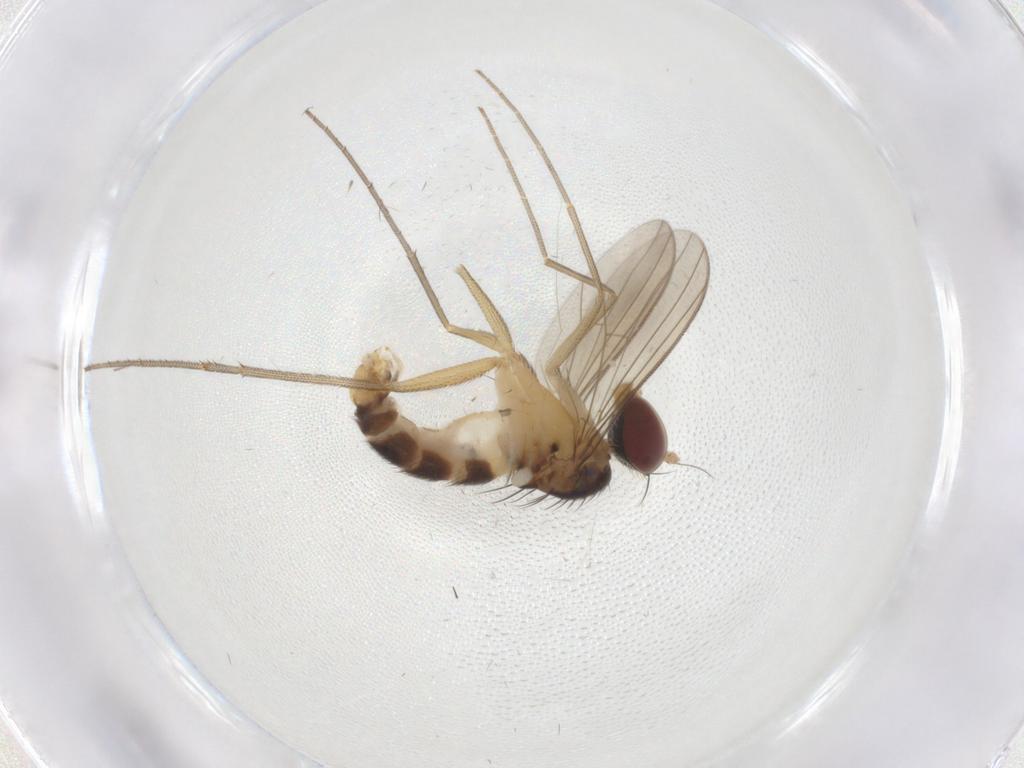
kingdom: Animalia
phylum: Arthropoda
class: Insecta
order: Diptera
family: Dolichopodidae
